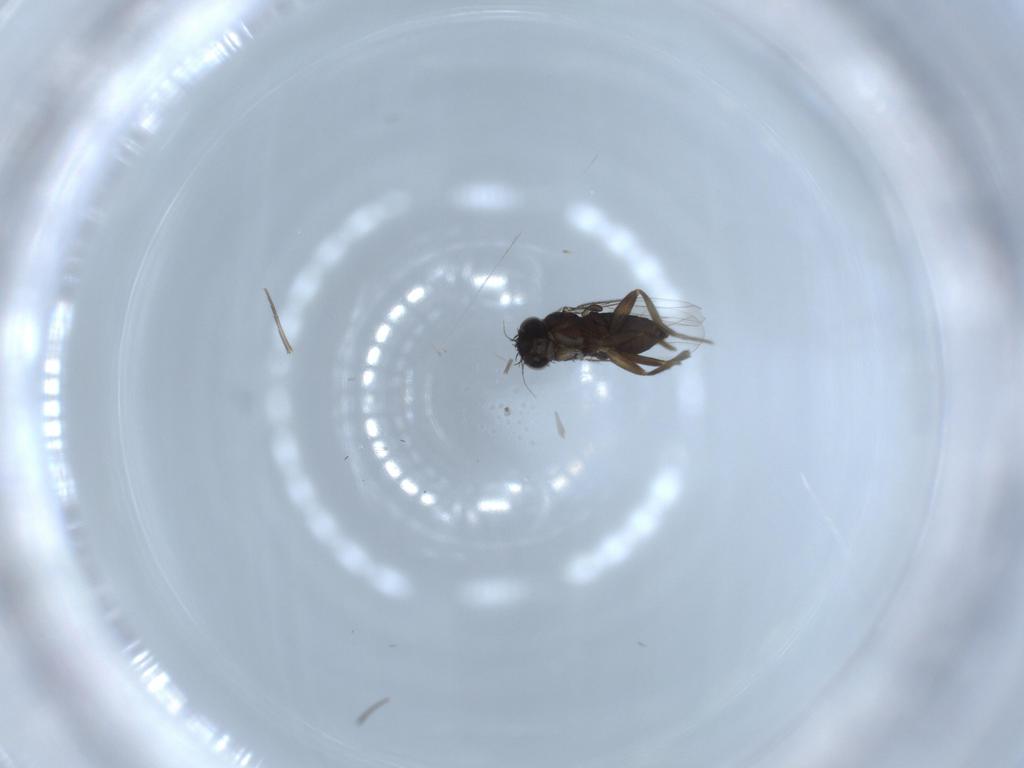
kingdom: Animalia
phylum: Arthropoda
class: Insecta
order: Diptera
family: Phoridae
